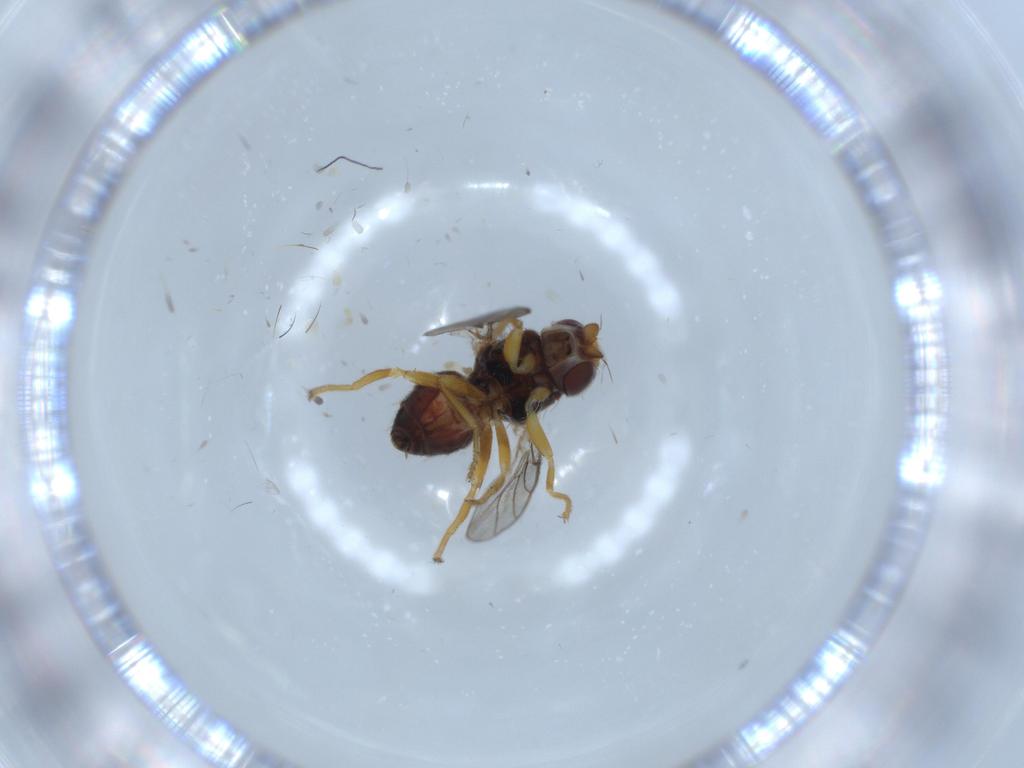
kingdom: Animalia
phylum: Arthropoda
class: Insecta
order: Diptera
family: Chloropidae
